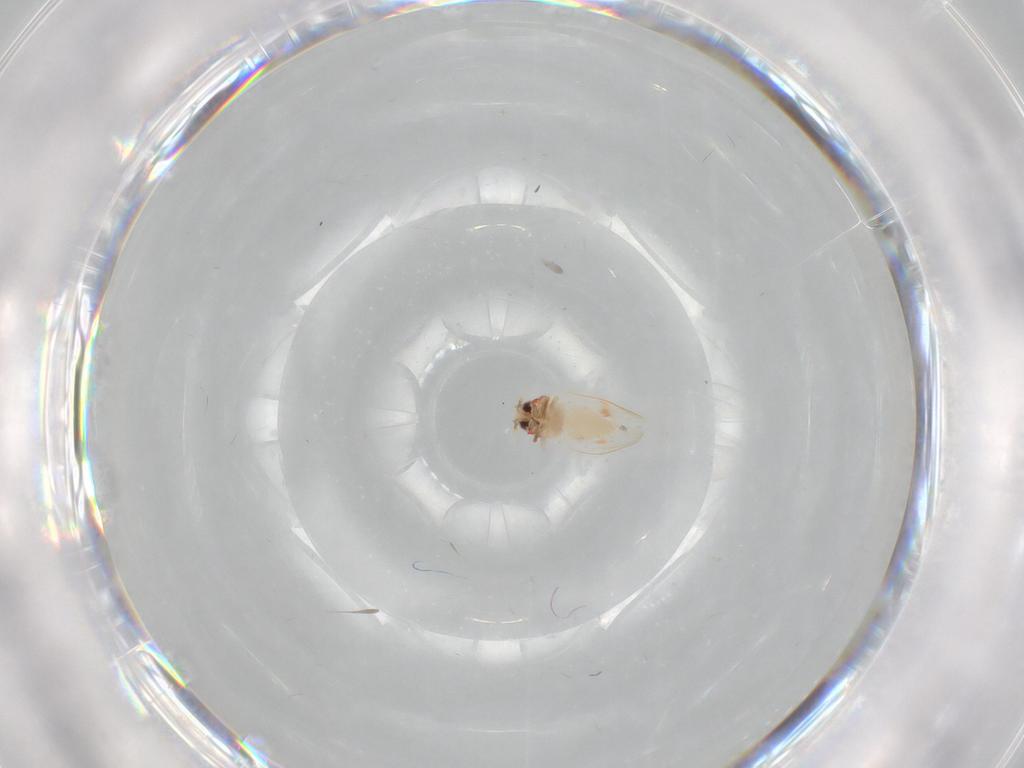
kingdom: Animalia
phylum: Arthropoda
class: Insecta
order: Hemiptera
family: Aleyrodidae
